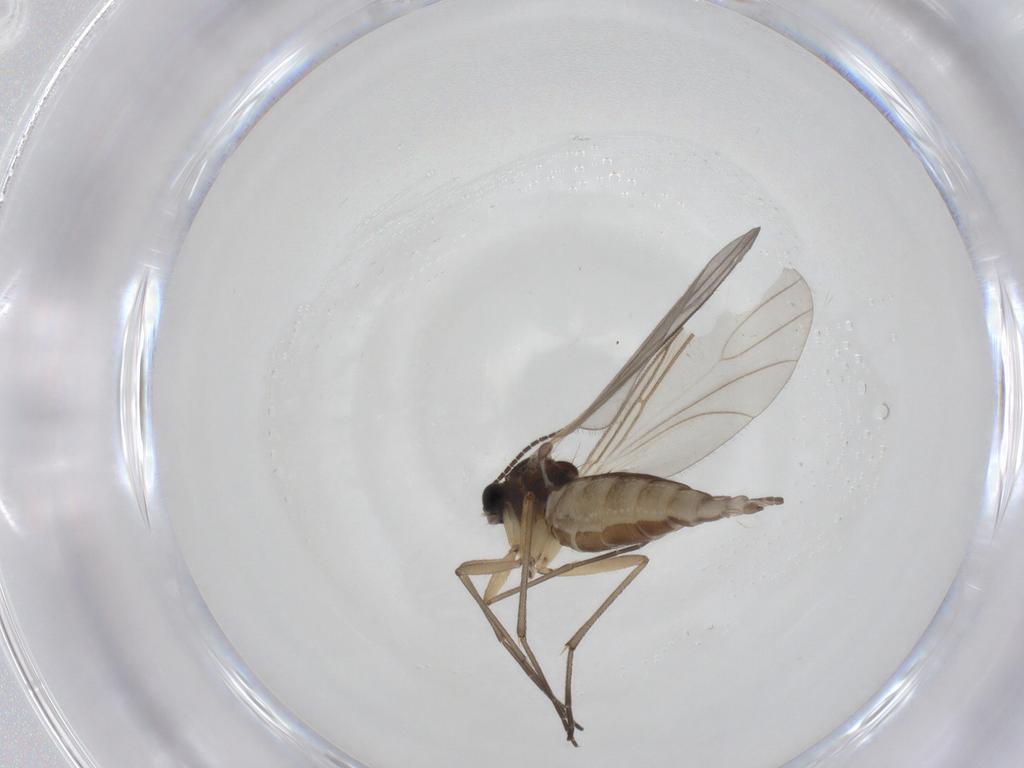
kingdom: Animalia
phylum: Arthropoda
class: Insecta
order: Diptera
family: Sciaridae
